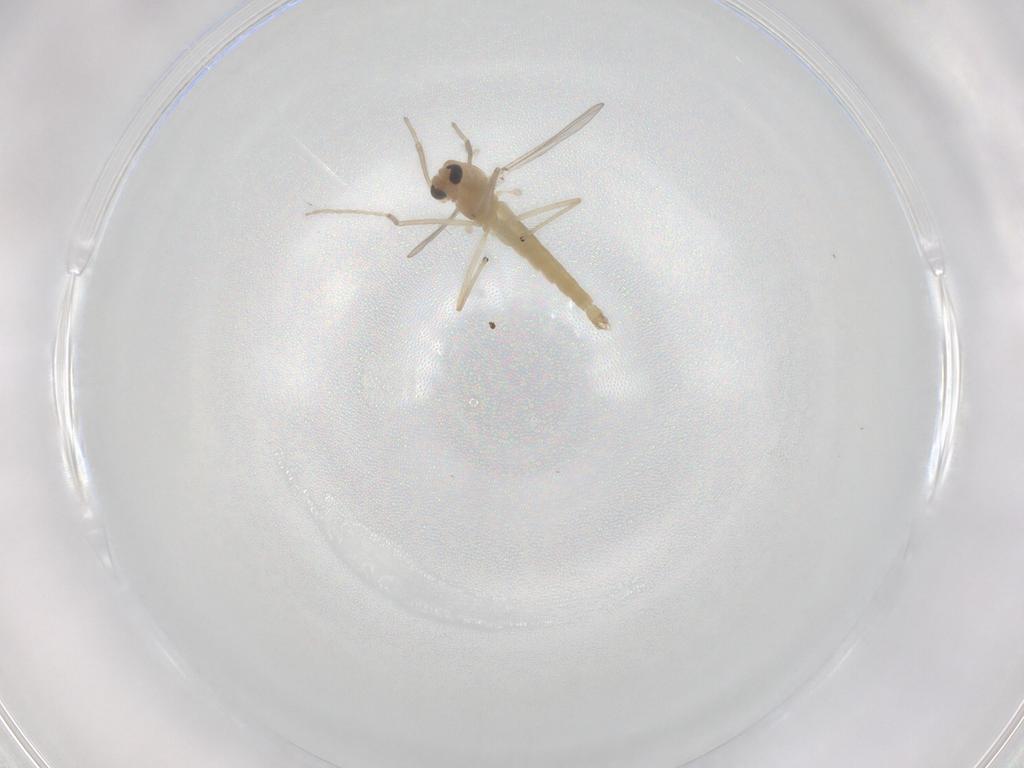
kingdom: Animalia
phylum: Arthropoda
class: Insecta
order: Diptera
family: Chironomidae
